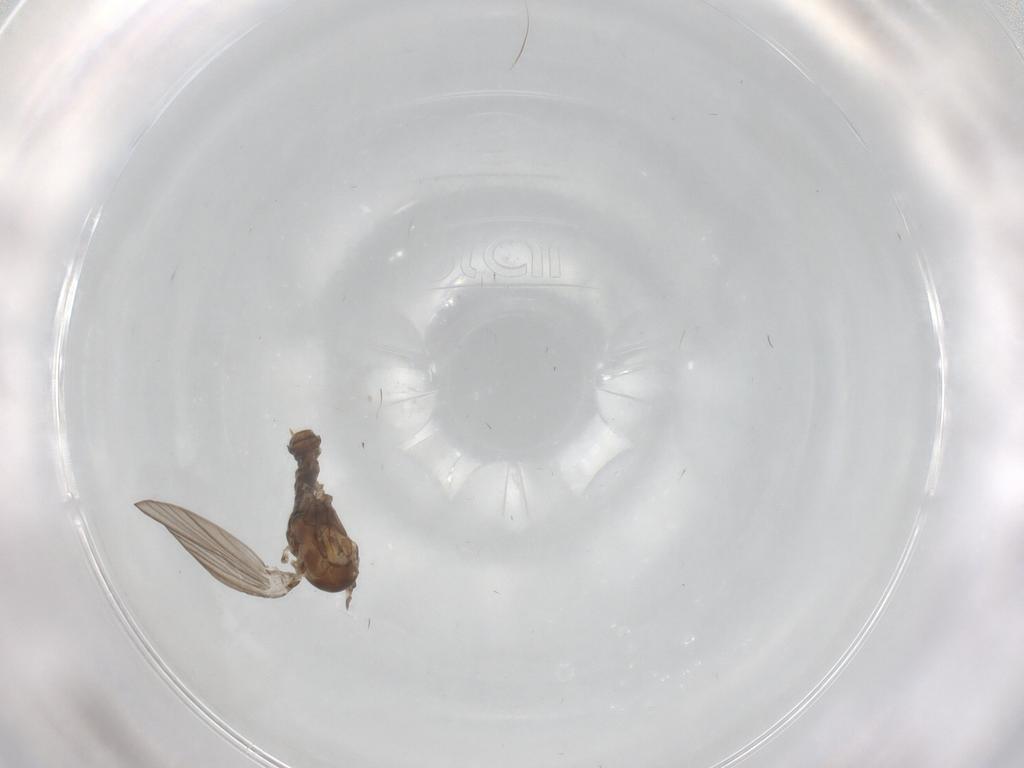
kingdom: Animalia
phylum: Arthropoda
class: Insecta
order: Diptera
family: Psychodidae
